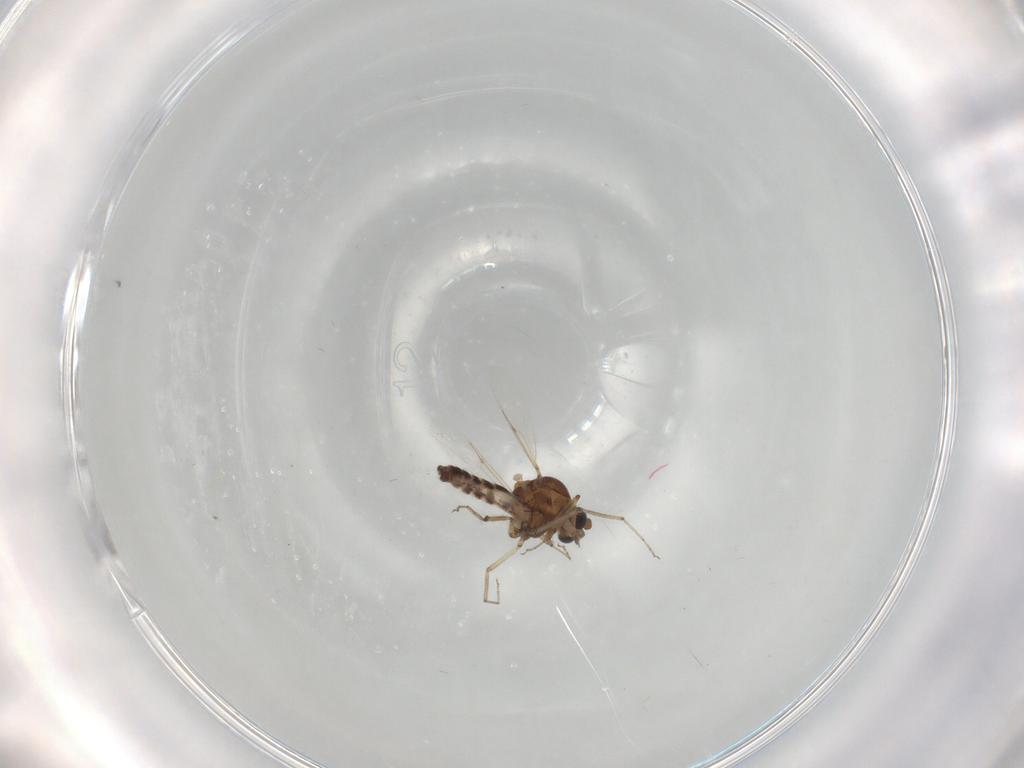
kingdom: Animalia
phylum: Arthropoda
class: Insecta
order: Diptera
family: Ceratopogonidae
